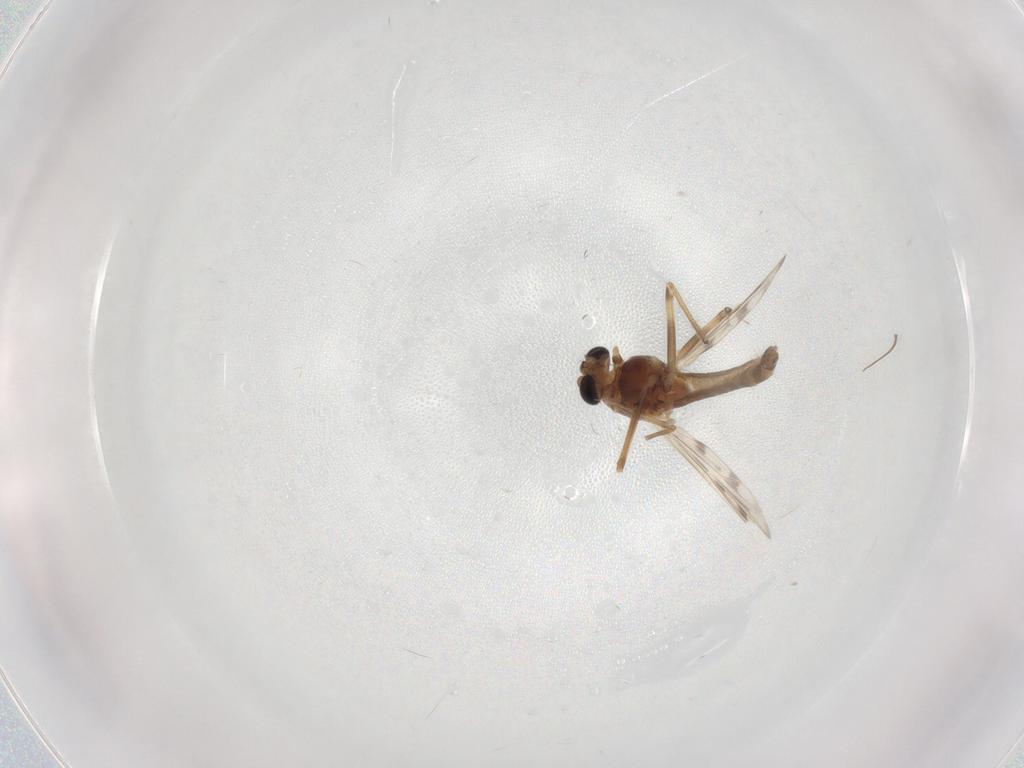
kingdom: Animalia
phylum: Arthropoda
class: Insecta
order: Diptera
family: Chironomidae
